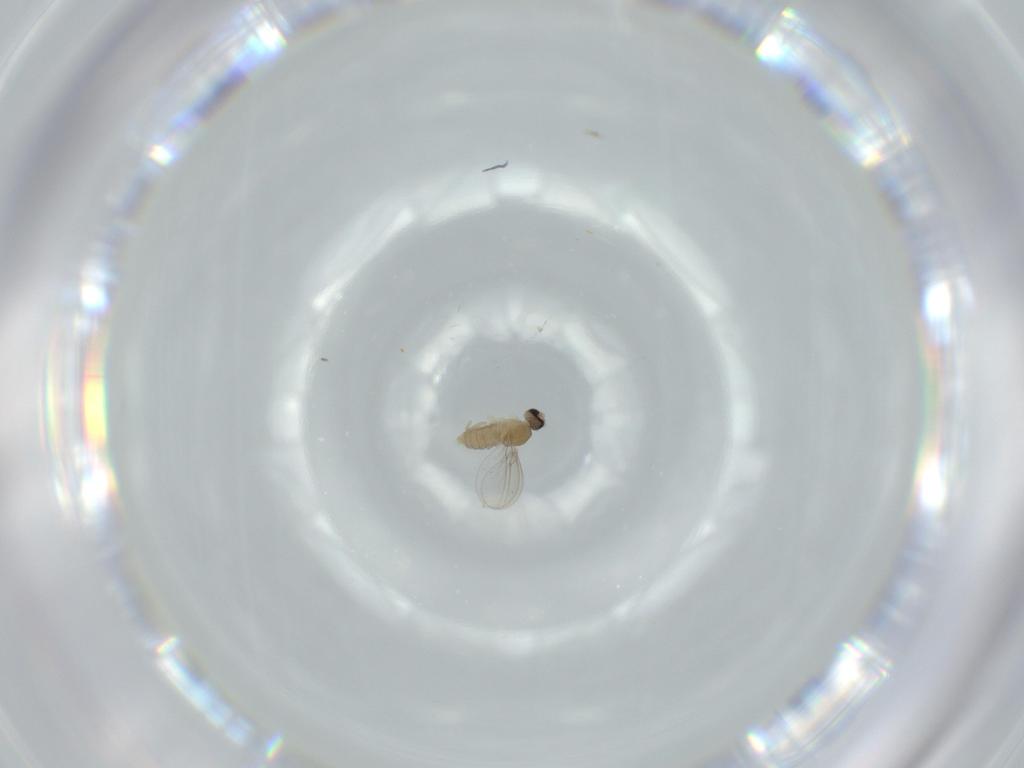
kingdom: Animalia
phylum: Arthropoda
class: Insecta
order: Diptera
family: Cecidomyiidae
